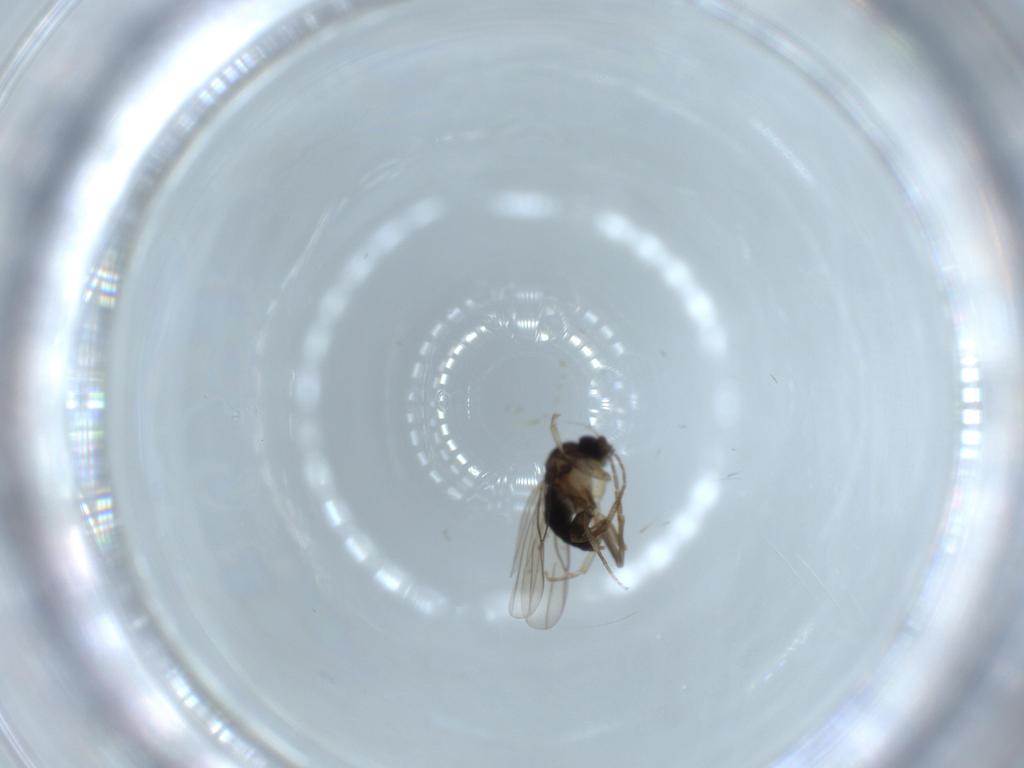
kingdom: Animalia
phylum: Arthropoda
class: Insecta
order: Diptera
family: Phoridae
